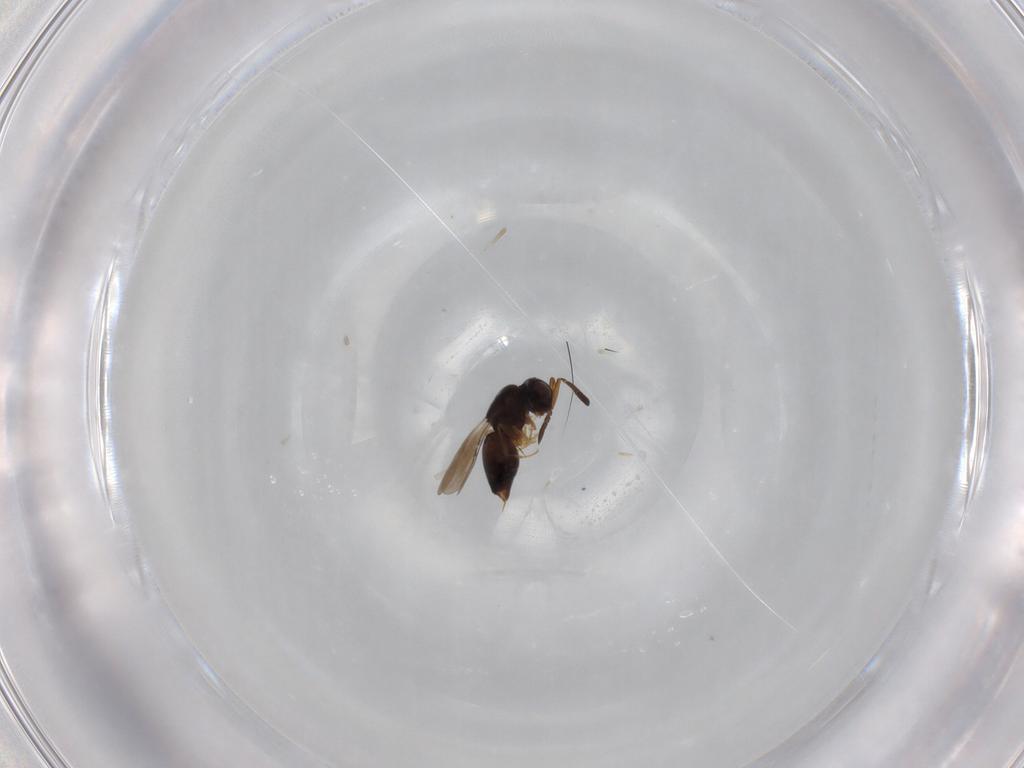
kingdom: Animalia
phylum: Arthropoda
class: Insecta
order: Hymenoptera
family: Ceraphronidae
